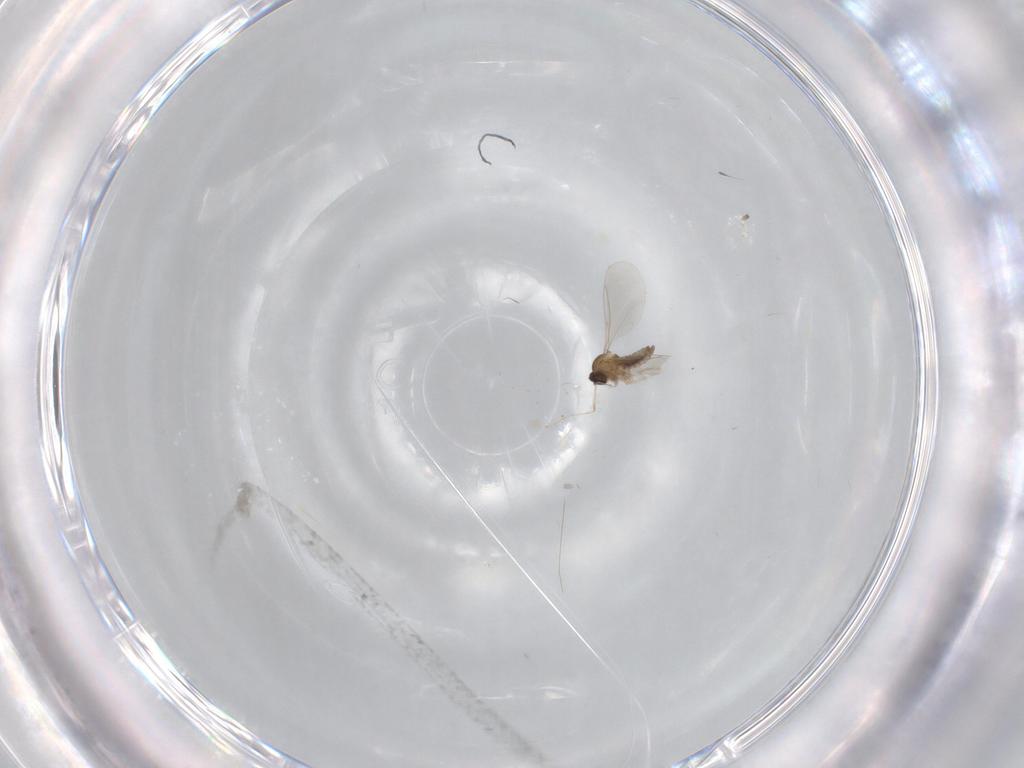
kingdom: Animalia
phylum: Arthropoda
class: Insecta
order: Diptera
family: Cecidomyiidae
